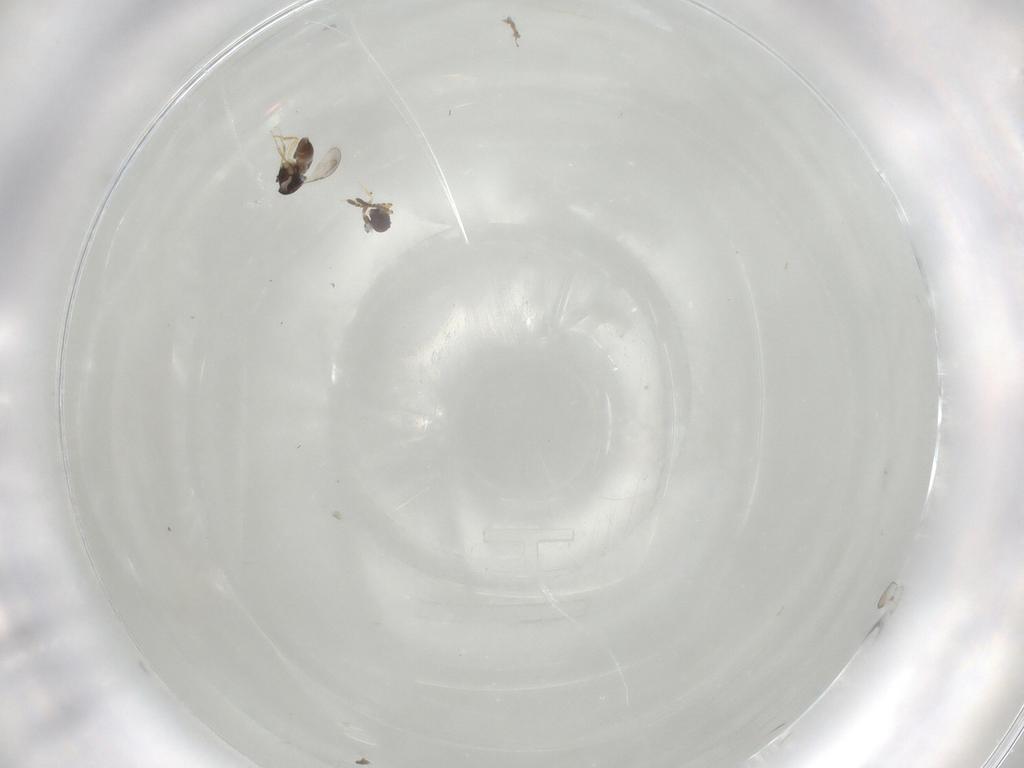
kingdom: Animalia
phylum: Arthropoda
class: Insecta
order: Hymenoptera
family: Ceraphronidae
